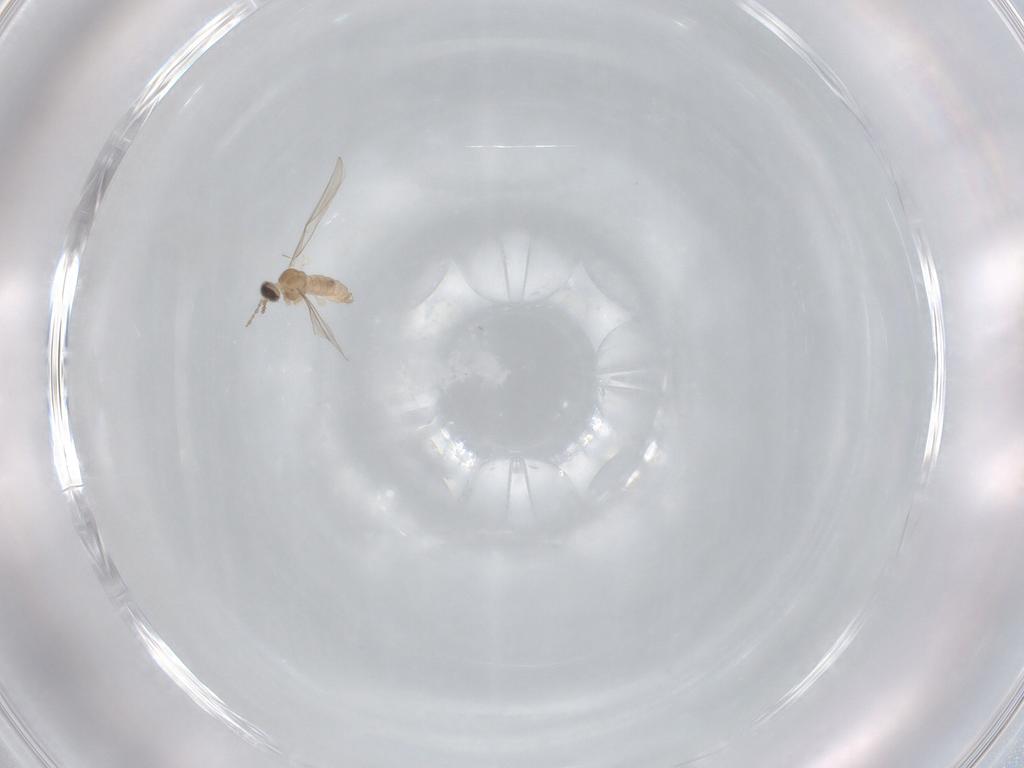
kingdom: Animalia
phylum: Arthropoda
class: Insecta
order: Diptera
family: Cecidomyiidae
